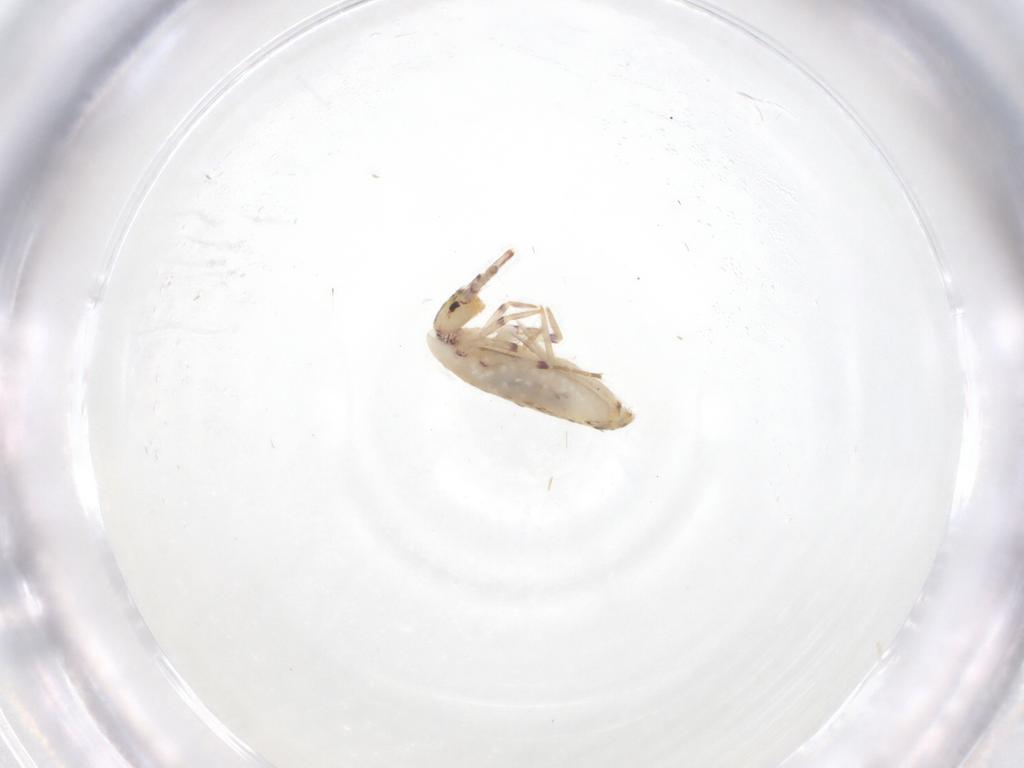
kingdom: Animalia
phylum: Arthropoda
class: Collembola
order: Entomobryomorpha
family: Entomobryidae
